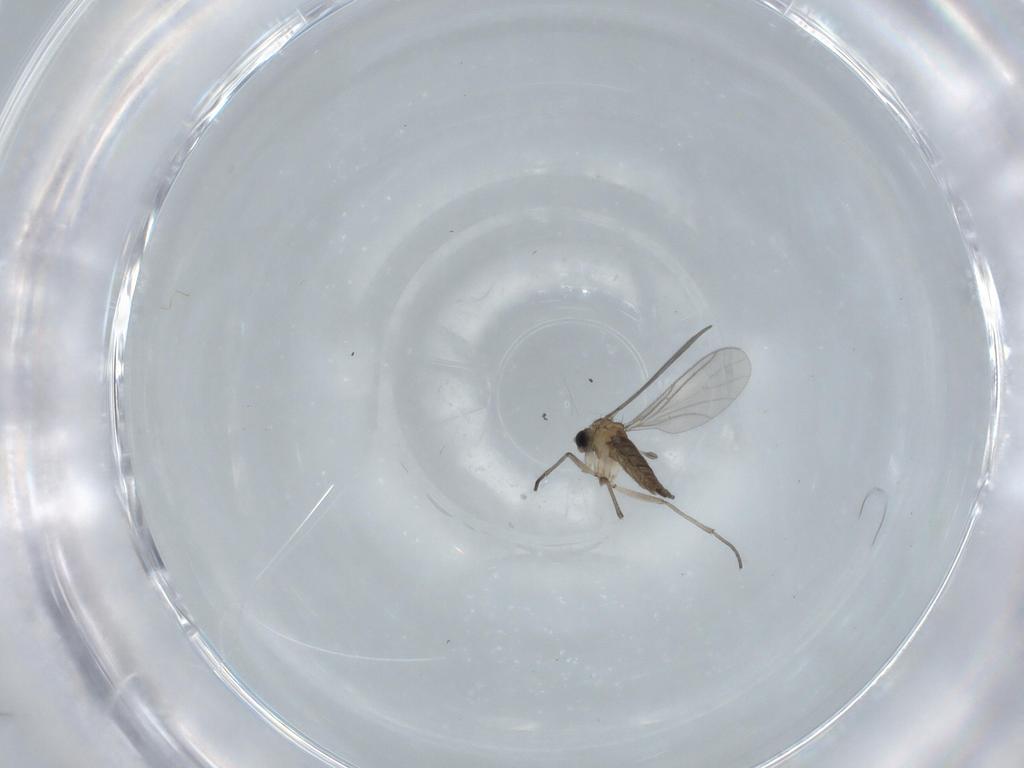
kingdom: Animalia
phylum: Arthropoda
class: Insecta
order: Diptera
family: Sciaridae
